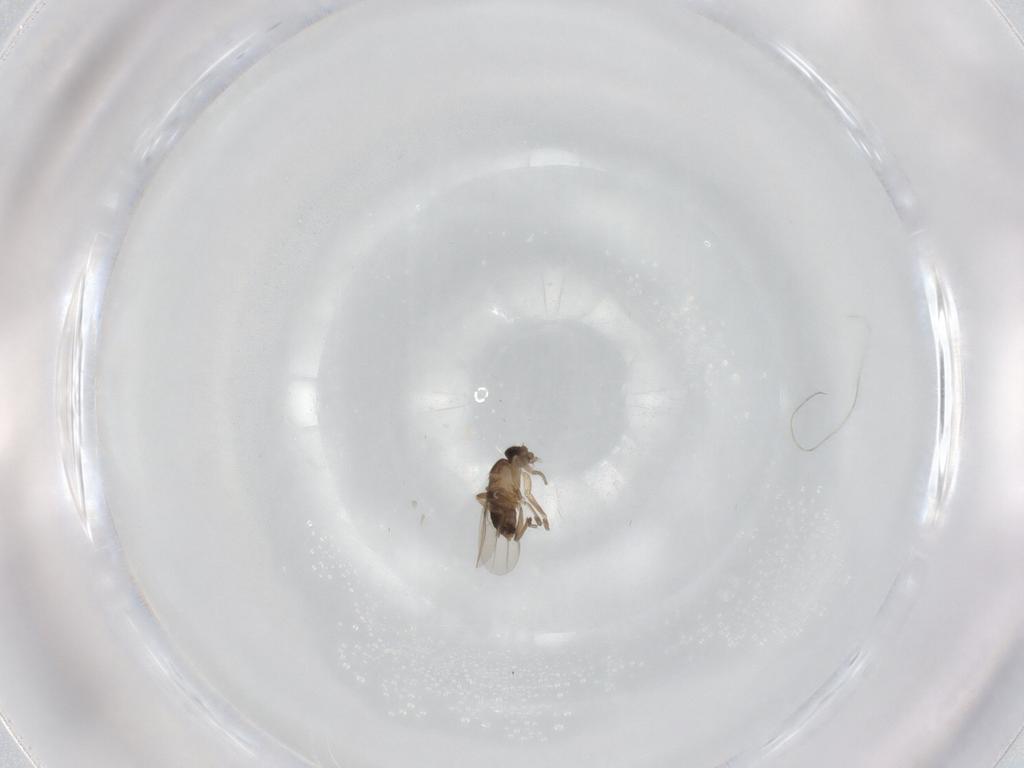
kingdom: Animalia
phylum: Arthropoda
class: Insecta
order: Diptera
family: Phoridae
